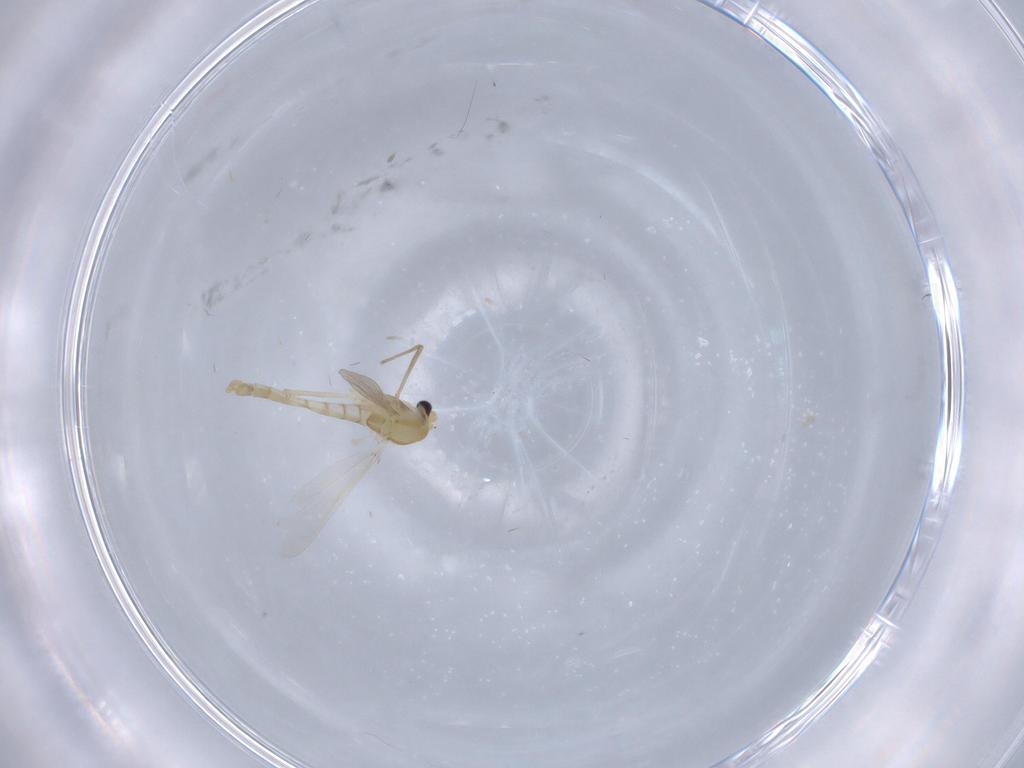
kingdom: Animalia
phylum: Arthropoda
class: Insecta
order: Diptera
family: Chironomidae
